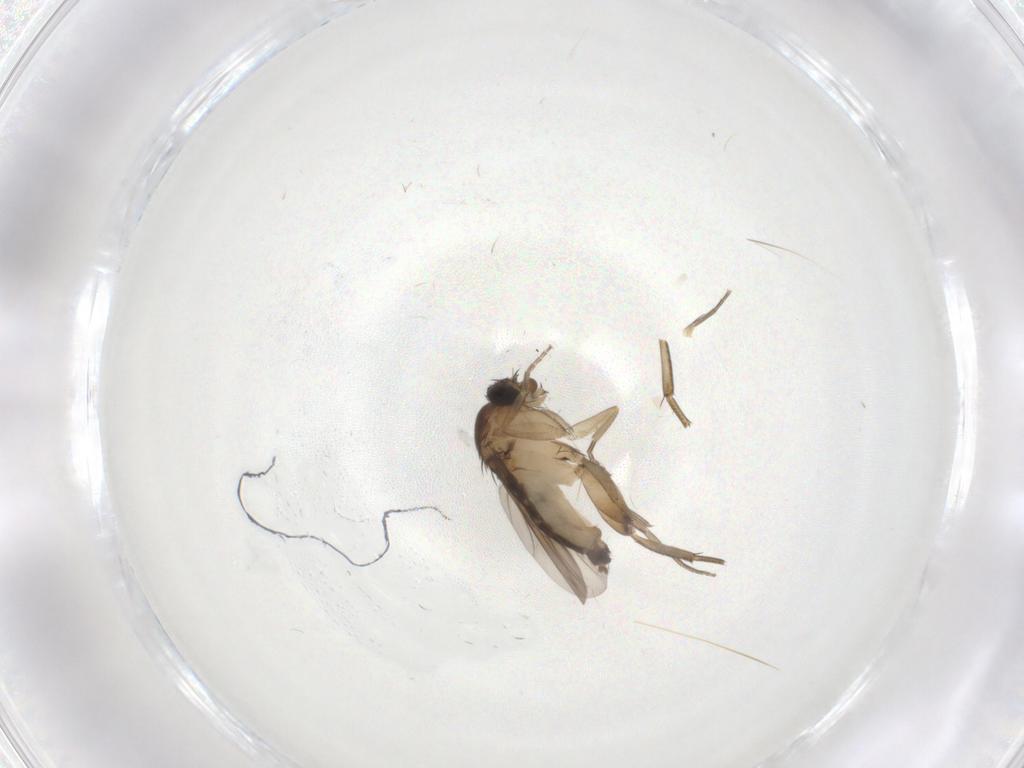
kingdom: Animalia
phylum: Arthropoda
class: Insecta
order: Diptera
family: Phoridae
